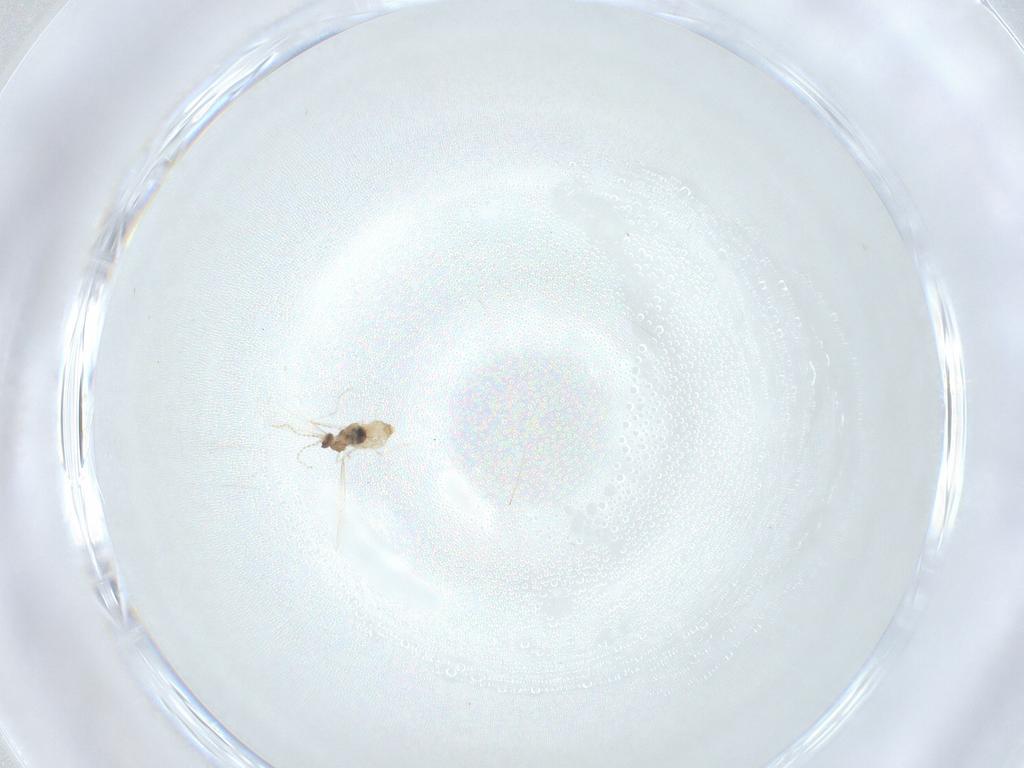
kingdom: Animalia
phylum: Arthropoda
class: Insecta
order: Diptera
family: Cecidomyiidae
